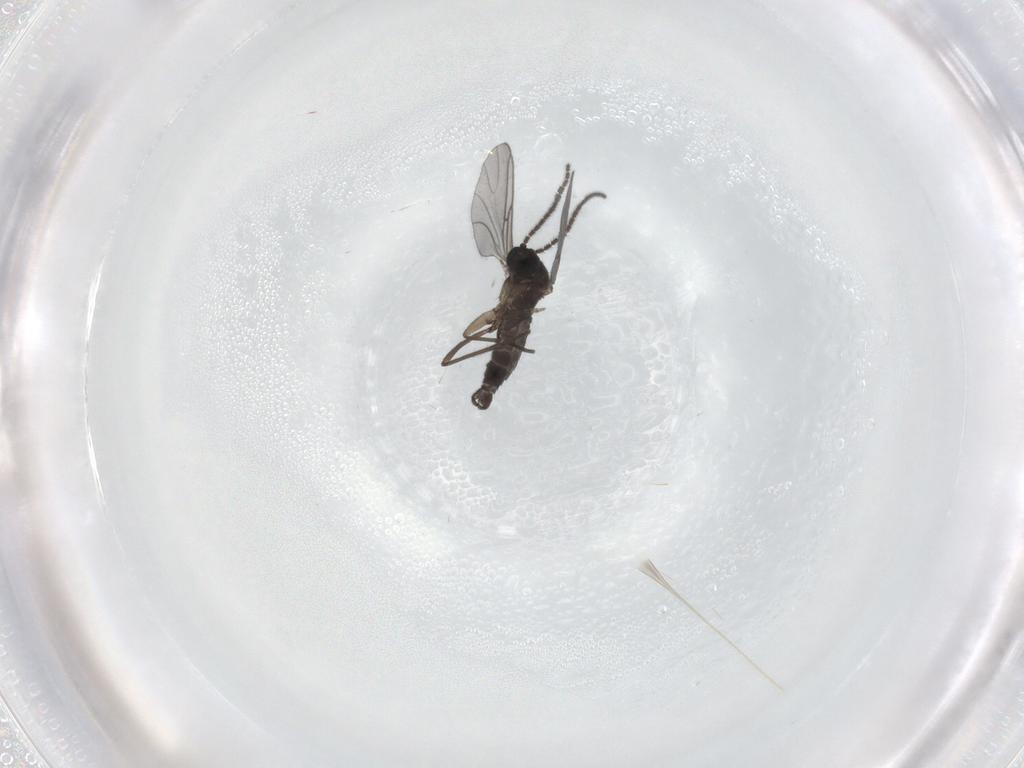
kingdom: Animalia
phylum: Arthropoda
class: Insecta
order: Diptera
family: Sciaridae
